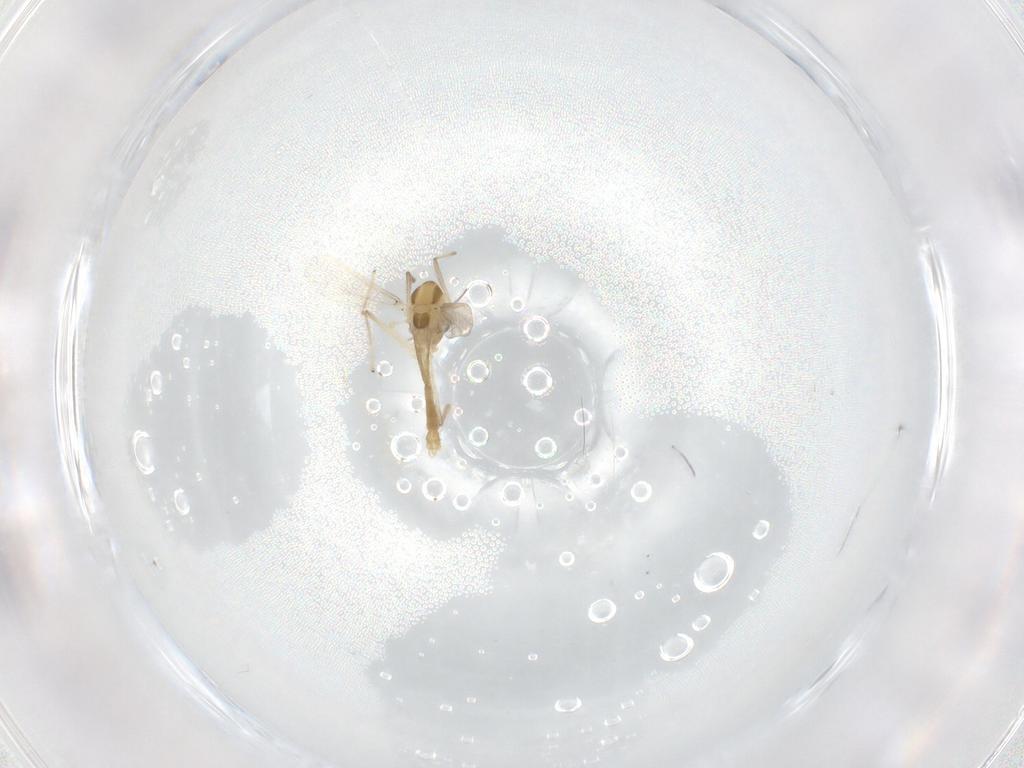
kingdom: Animalia
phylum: Arthropoda
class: Insecta
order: Diptera
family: Chironomidae
